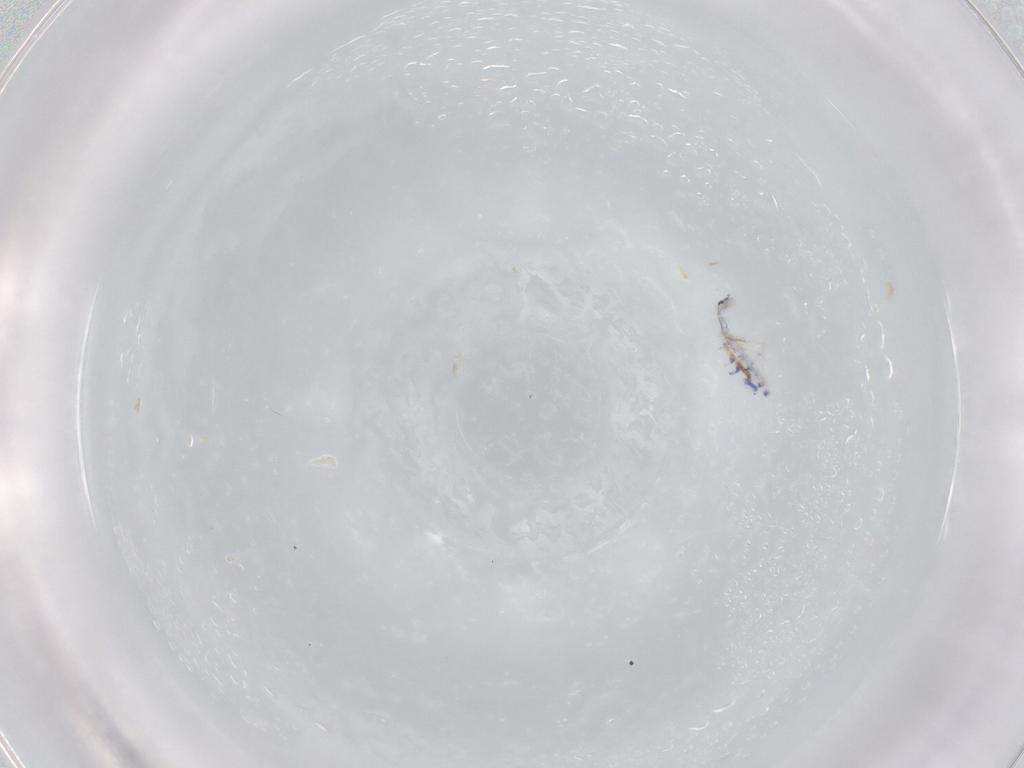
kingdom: Animalia
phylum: Arthropoda
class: Collembola
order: Entomobryomorpha
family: Entomobryidae
